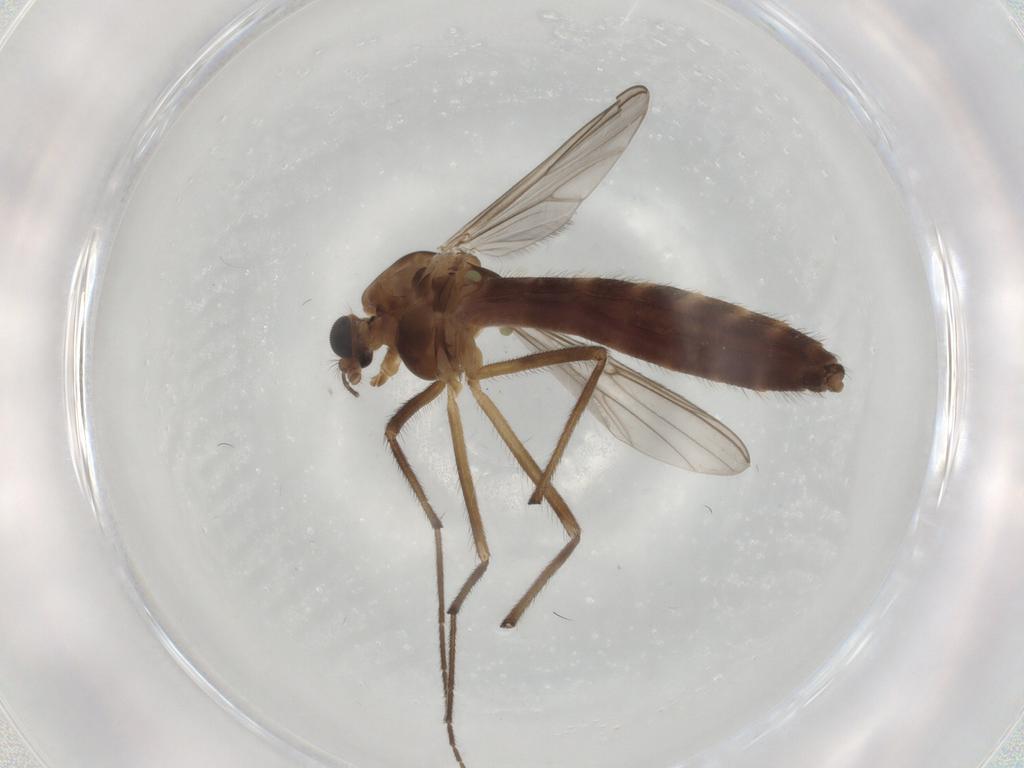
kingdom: Animalia
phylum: Arthropoda
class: Insecta
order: Diptera
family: Chironomidae
